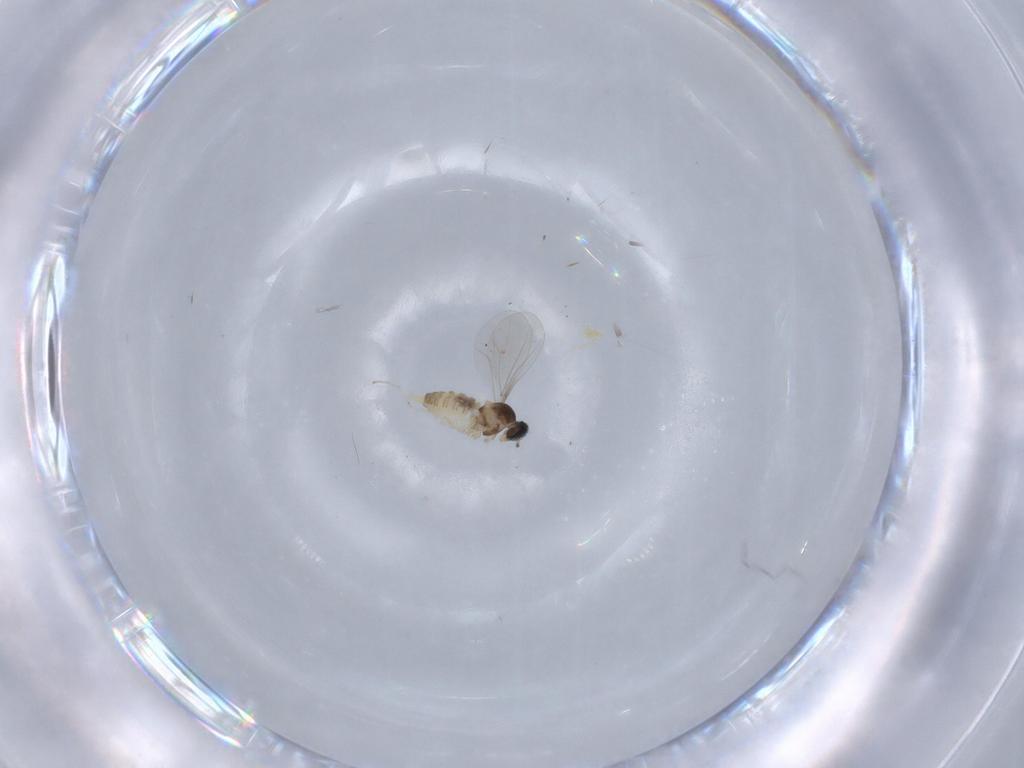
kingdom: Animalia
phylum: Arthropoda
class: Insecta
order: Diptera
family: Cecidomyiidae
